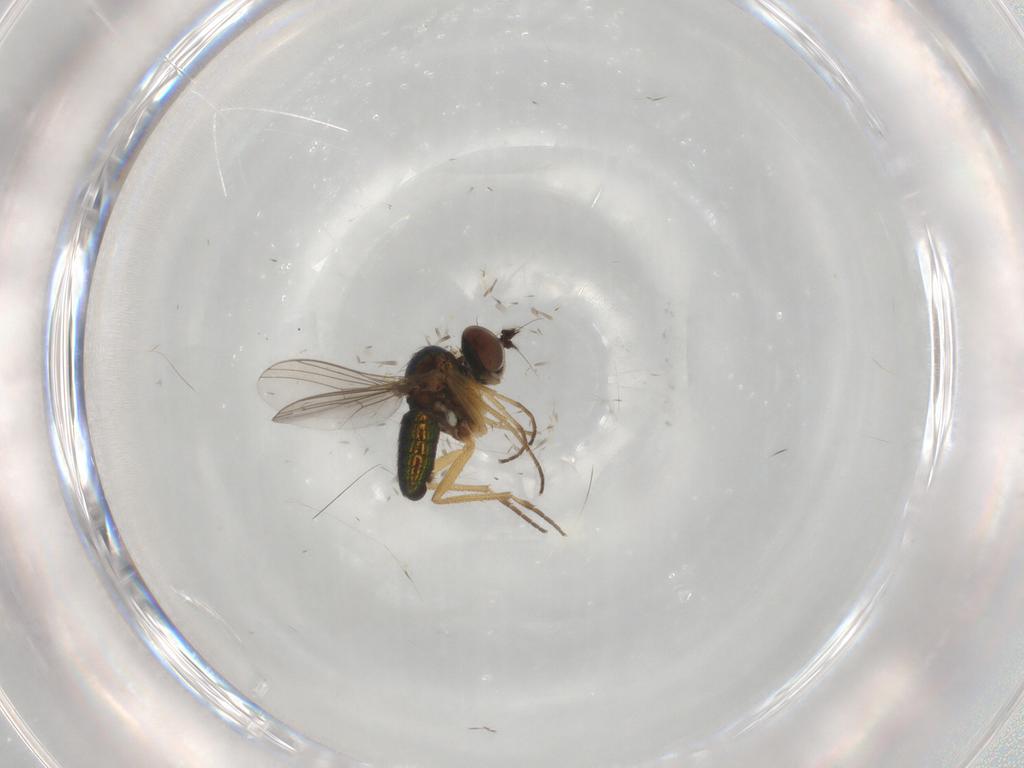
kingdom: Animalia
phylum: Arthropoda
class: Insecta
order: Diptera
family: Dolichopodidae
